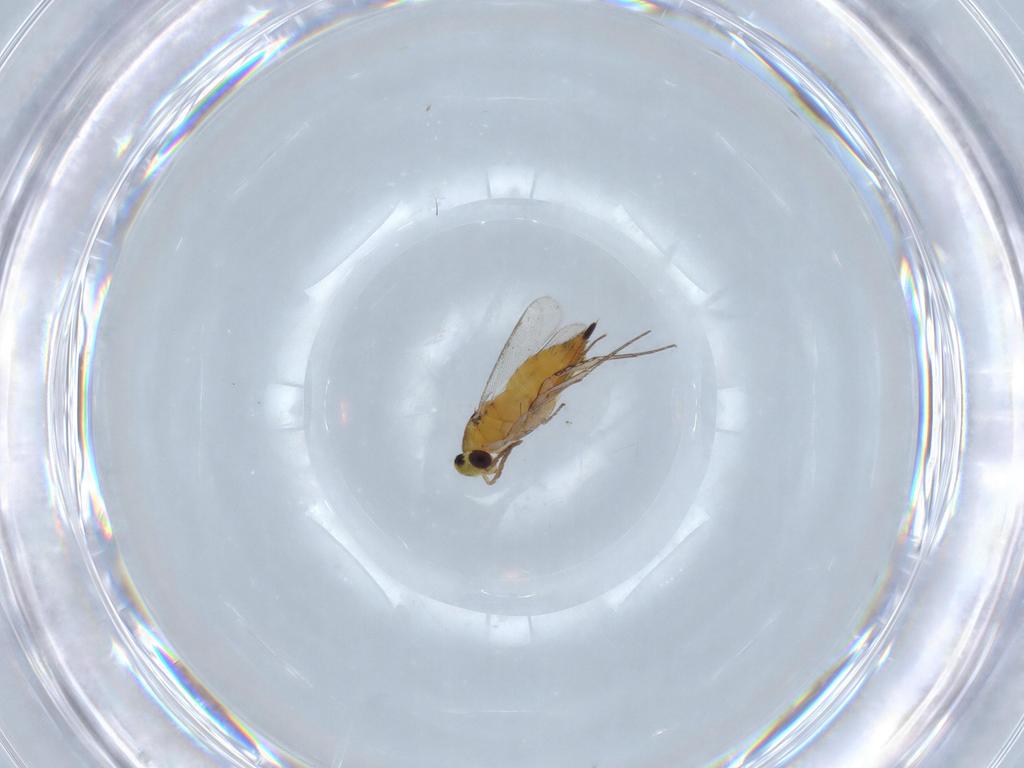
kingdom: Animalia
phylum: Arthropoda
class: Insecta
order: Hymenoptera
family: Eulophidae
